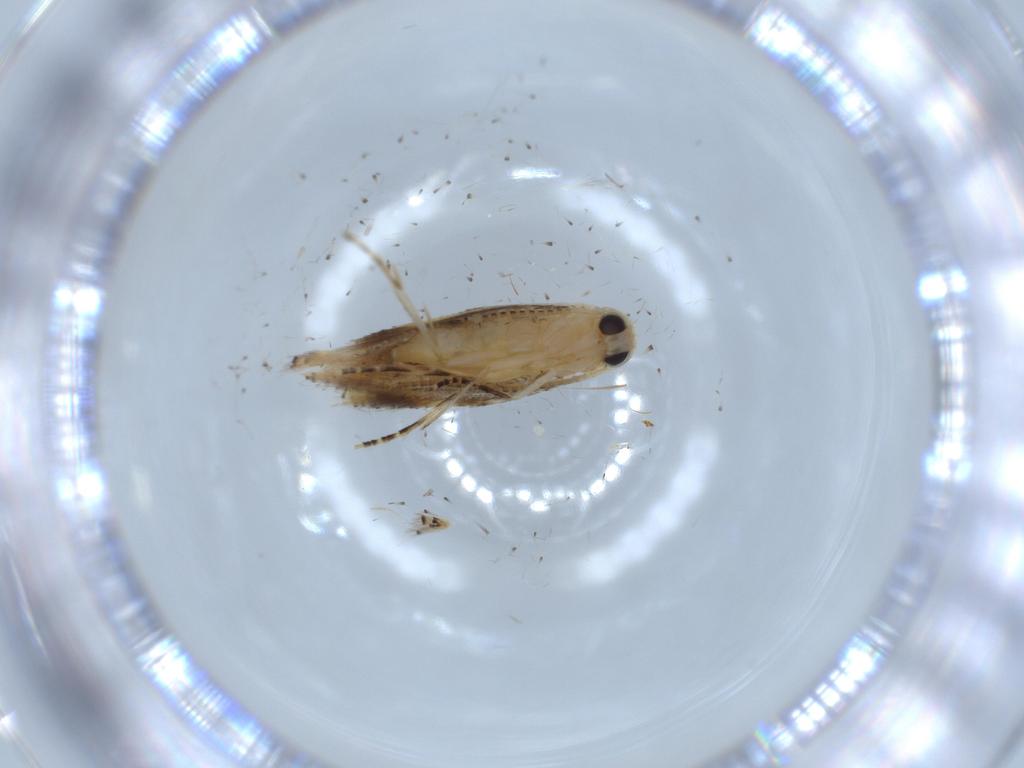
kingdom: Animalia
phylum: Arthropoda
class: Insecta
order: Lepidoptera
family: Bucculatricidae
